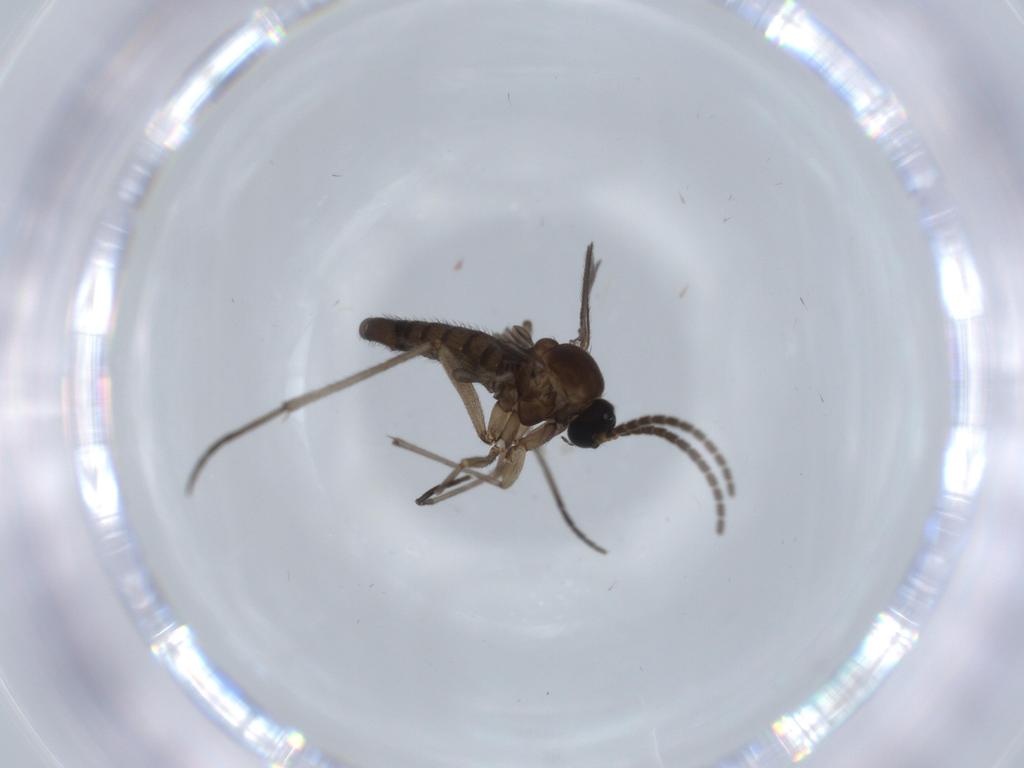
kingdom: Animalia
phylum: Arthropoda
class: Insecta
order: Diptera
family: Sciaridae
